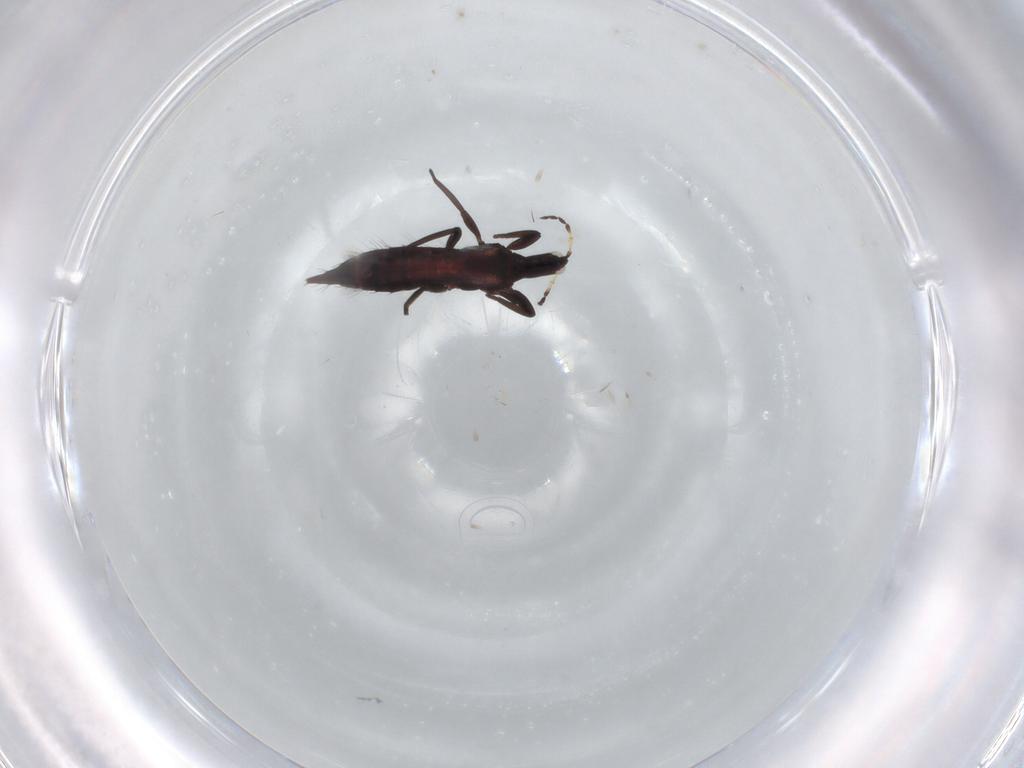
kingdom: Animalia
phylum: Arthropoda
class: Insecta
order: Thysanoptera
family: Phlaeothripidae
